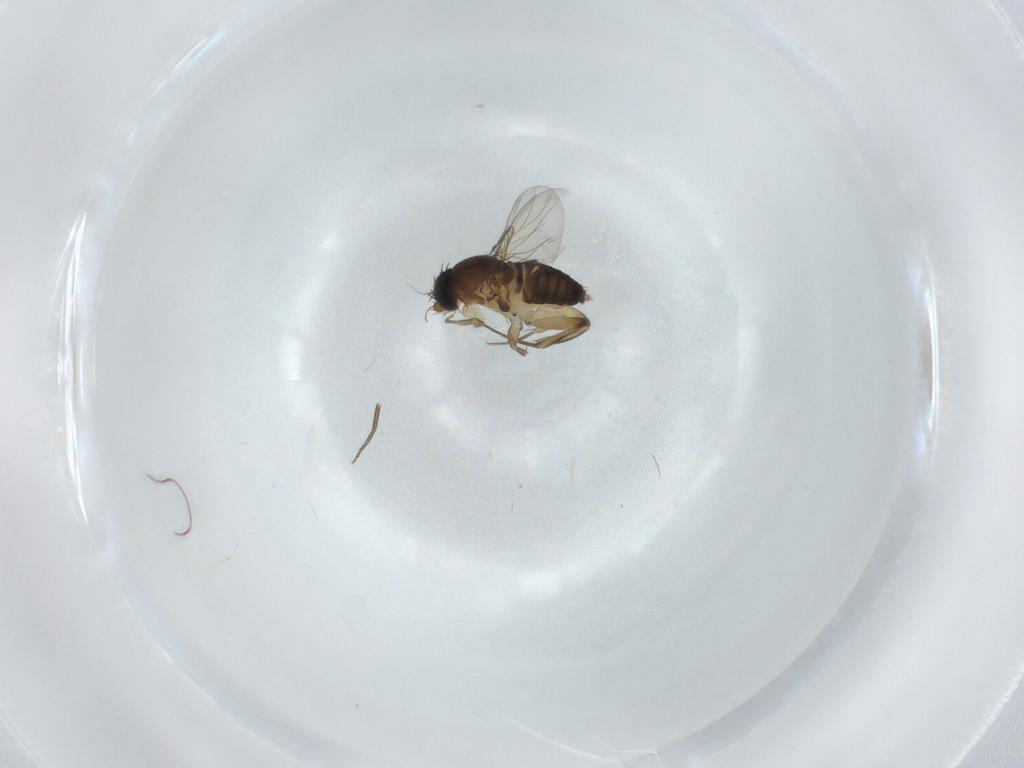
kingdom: Animalia
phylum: Arthropoda
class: Insecta
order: Diptera
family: Phoridae
